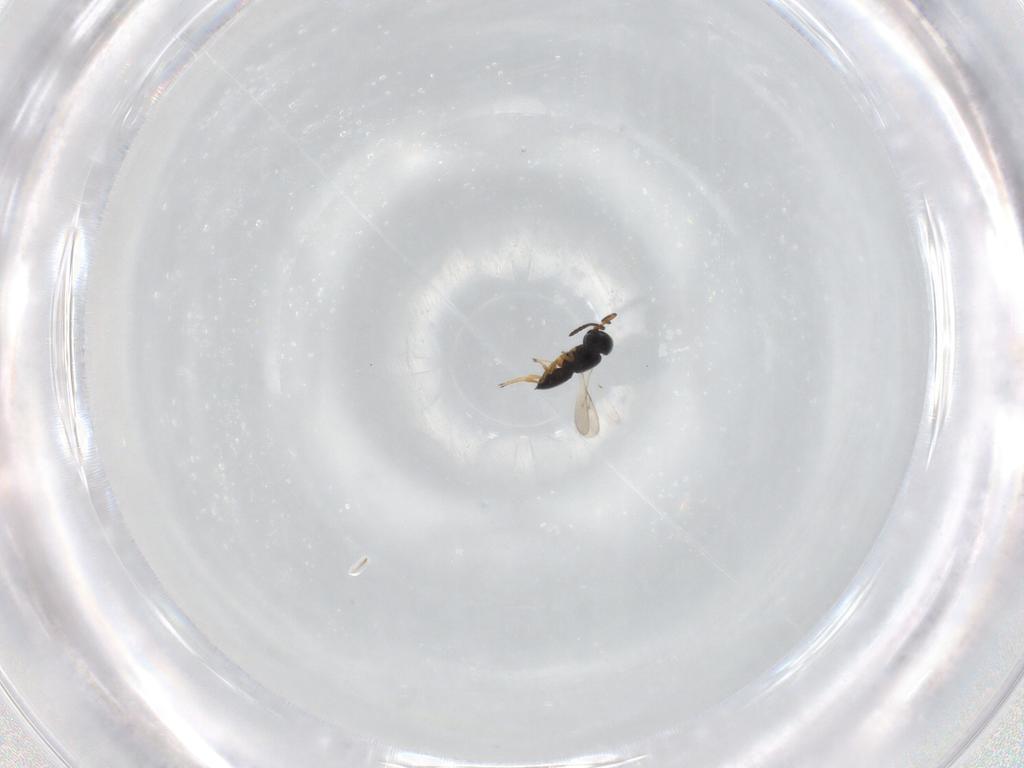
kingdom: Animalia
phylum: Arthropoda
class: Insecta
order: Hymenoptera
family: Scelionidae
